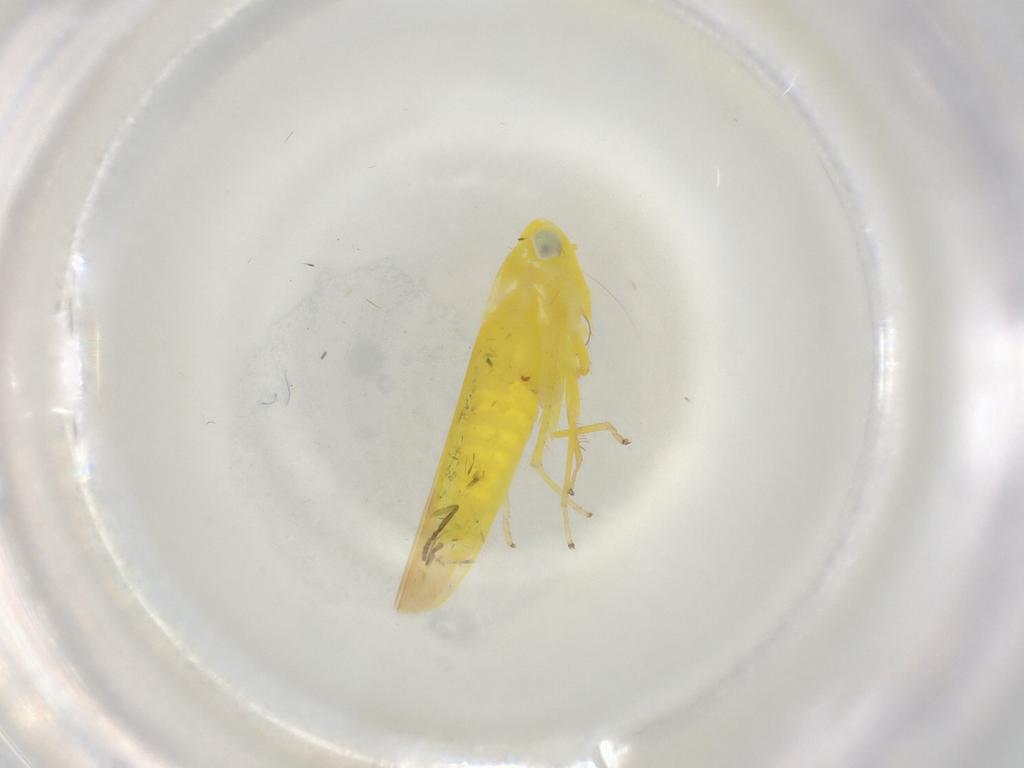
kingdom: Animalia
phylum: Arthropoda
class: Insecta
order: Hemiptera
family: Cicadellidae
